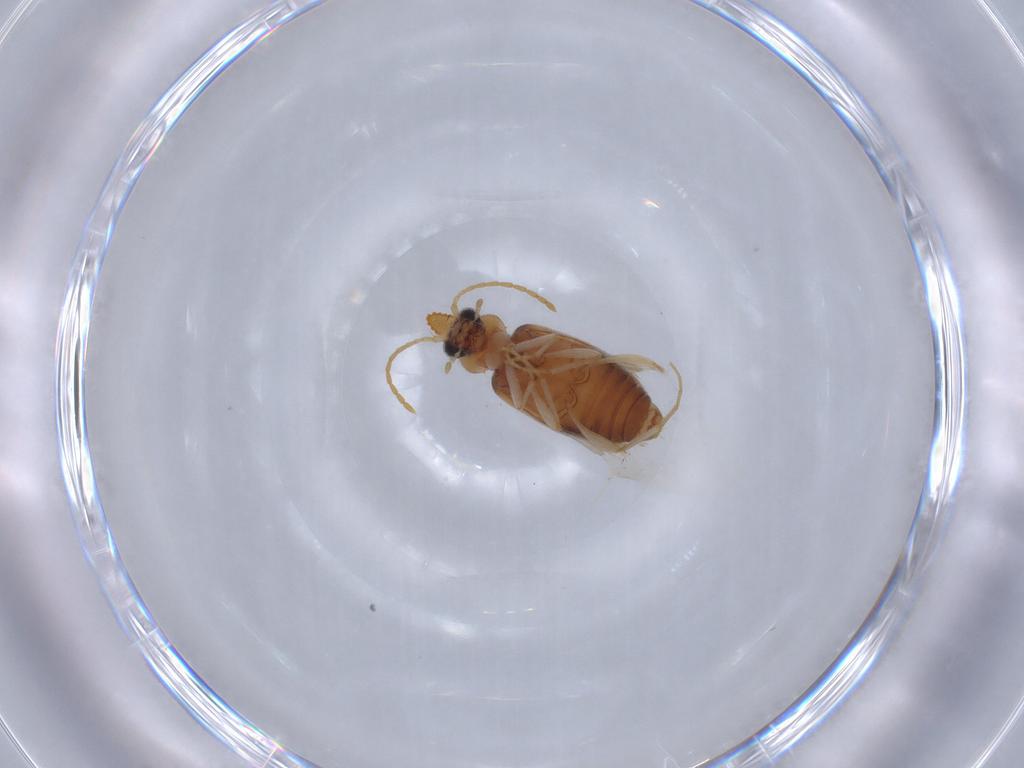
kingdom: Animalia
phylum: Arthropoda
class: Insecta
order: Coleoptera
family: Anthicidae
